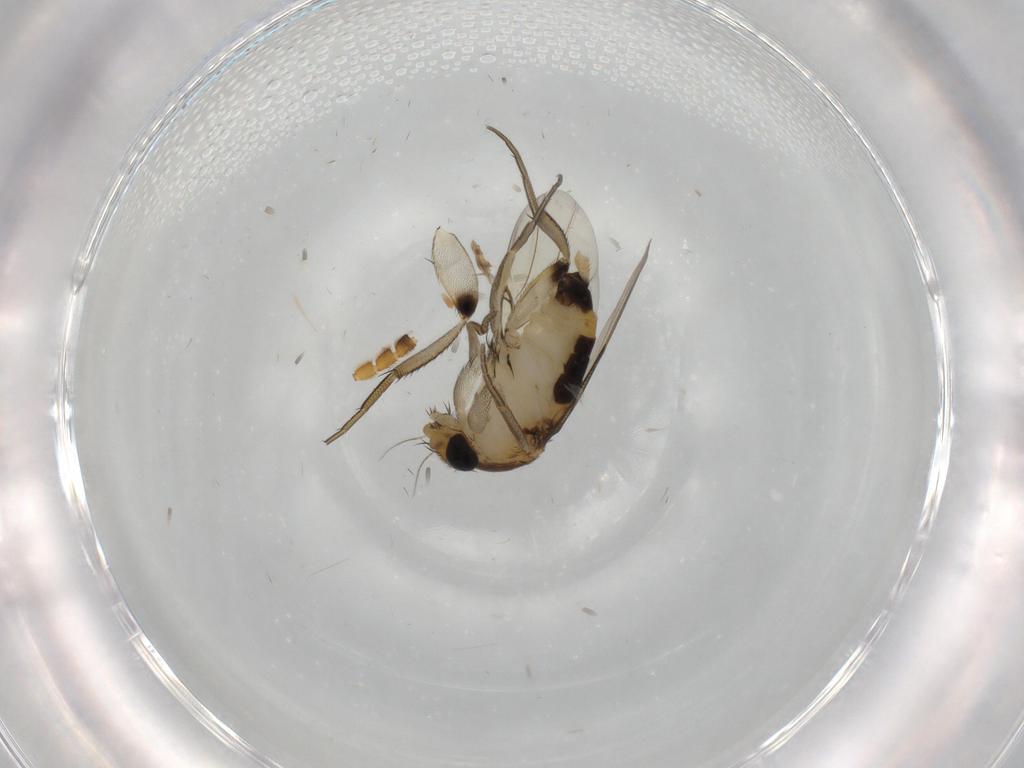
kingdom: Animalia
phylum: Arthropoda
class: Insecta
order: Diptera
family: Phoridae
